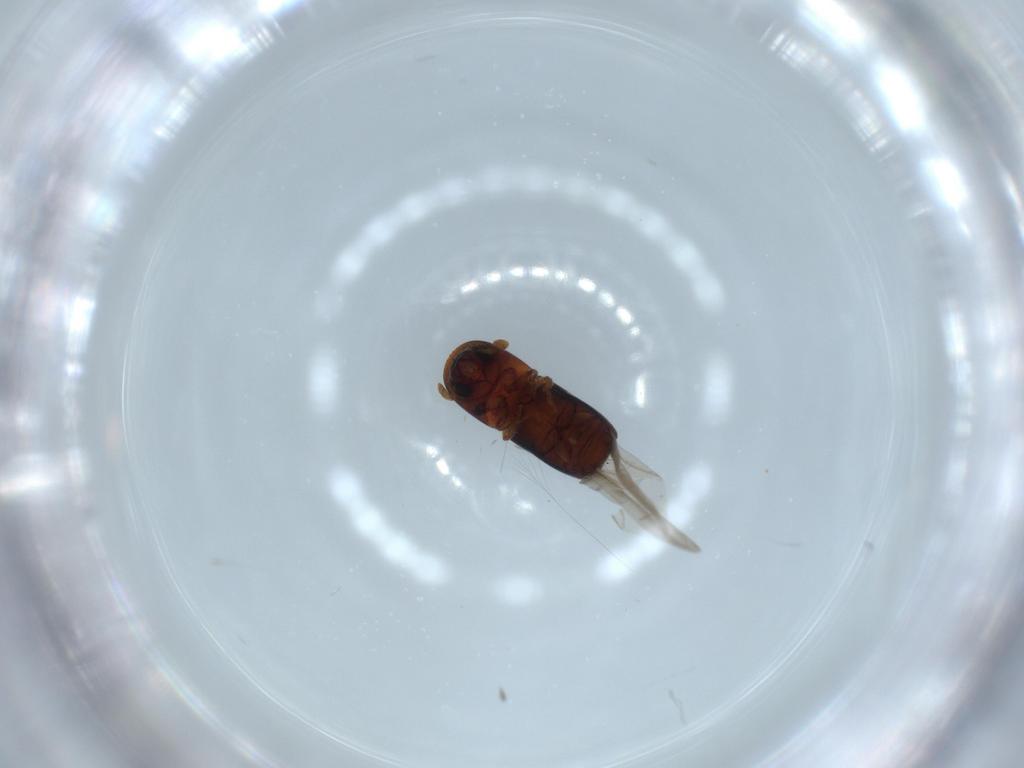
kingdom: Animalia
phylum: Arthropoda
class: Insecta
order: Coleoptera
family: Curculionidae
